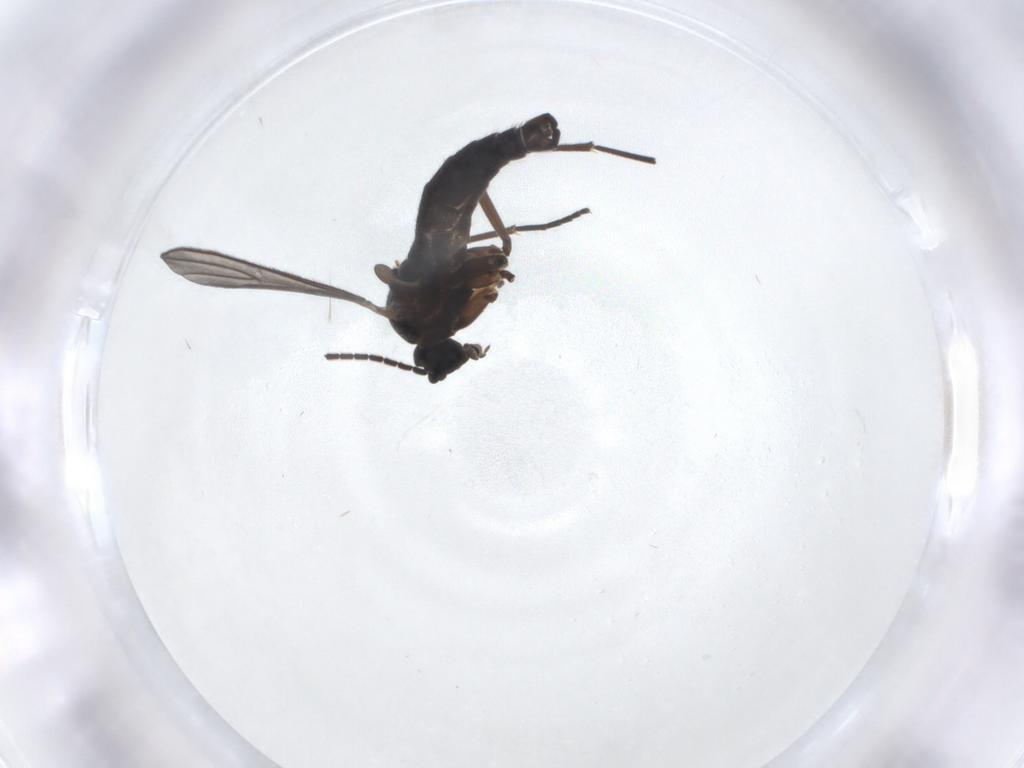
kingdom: Animalia
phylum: Arthropoda
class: Insecta
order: Diptera
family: Sciaridae
